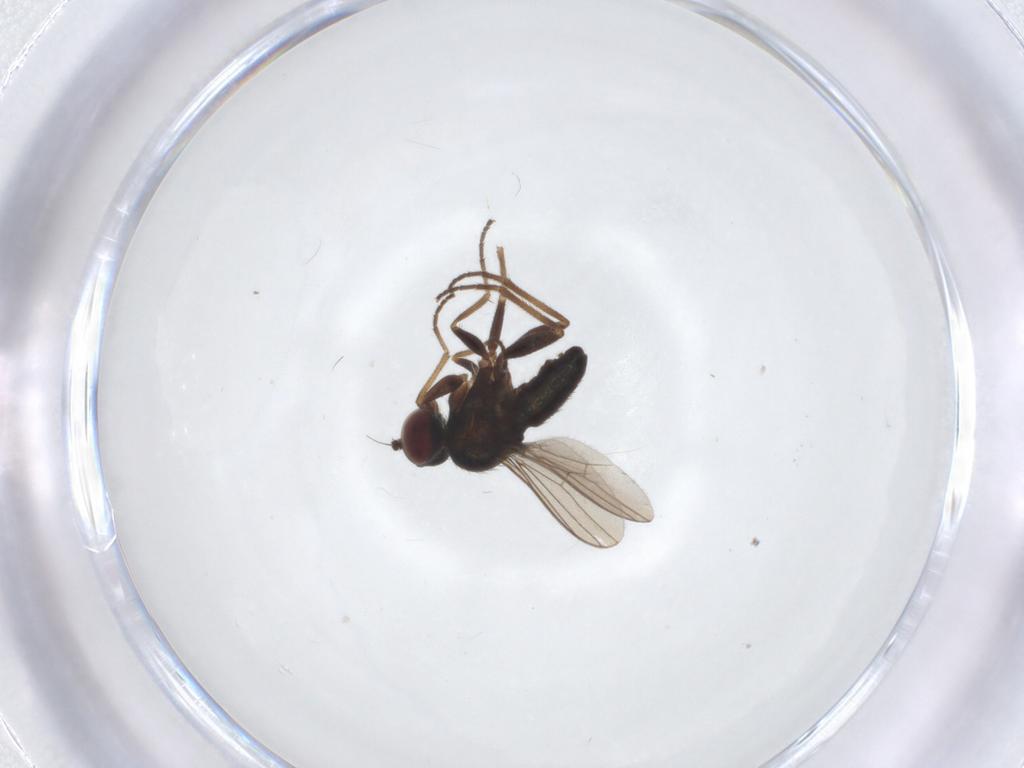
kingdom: Animalia
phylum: Arthropoda
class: Insecta
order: Diptera
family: Dolichopodidae
